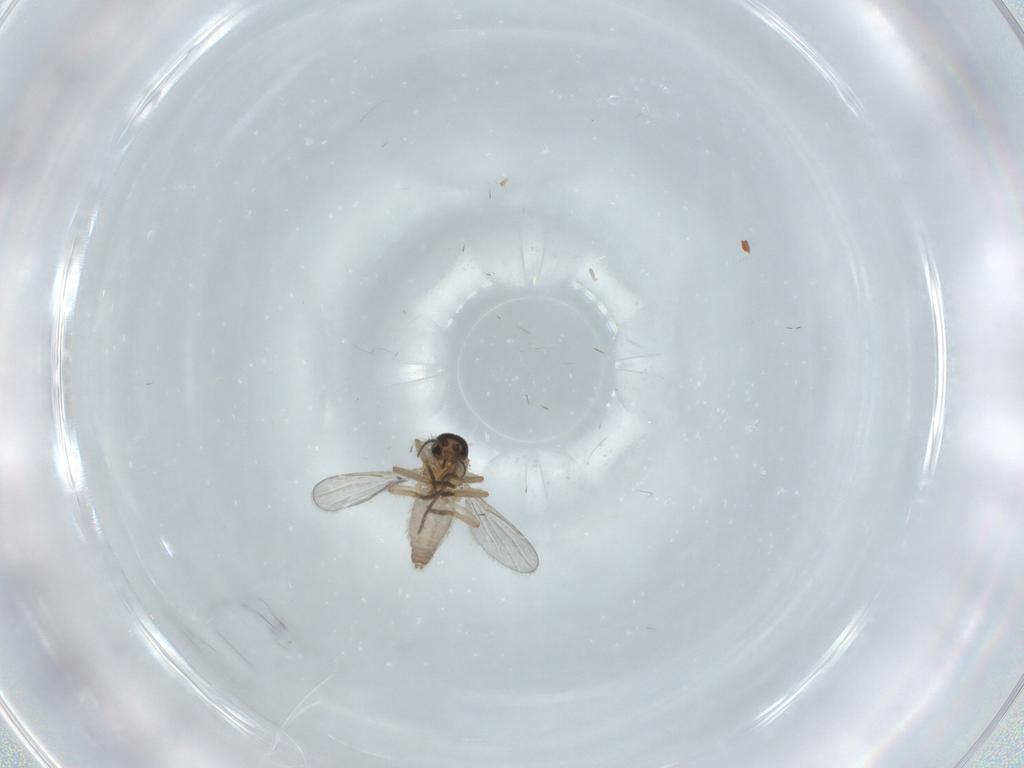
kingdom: Animalia
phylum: Arthropoda
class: Insecta
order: Diptera
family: Ceratopogonidae
